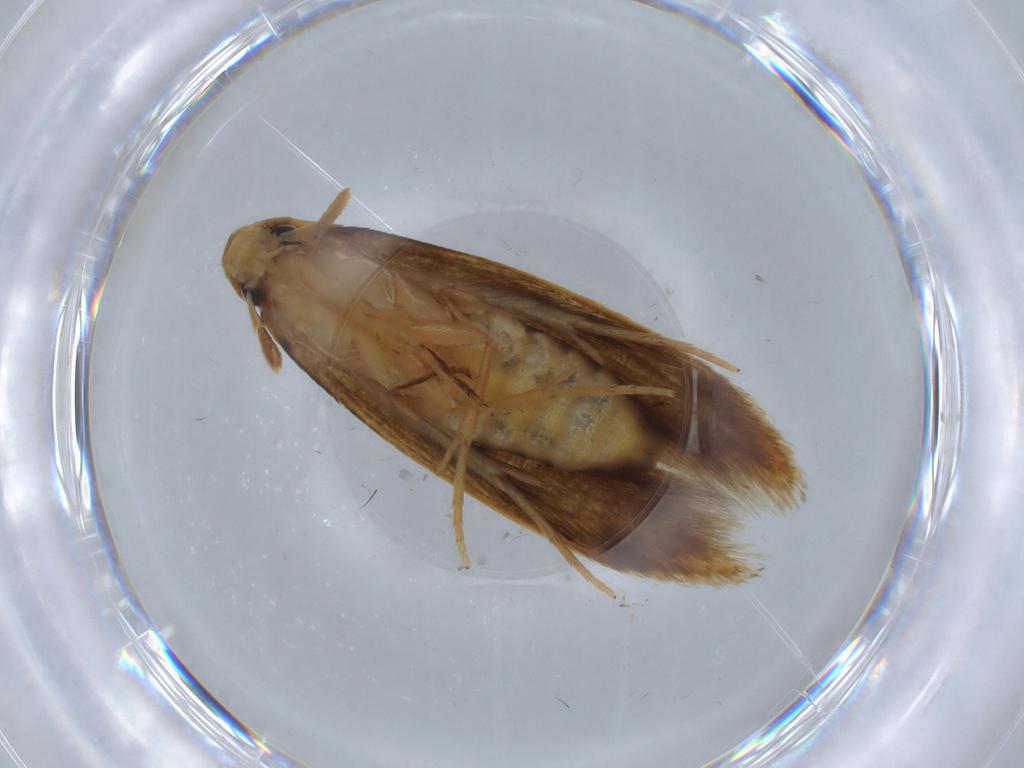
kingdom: Animalia
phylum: Arthropoda
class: Insecta
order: Lepidoptera
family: Tineidae
